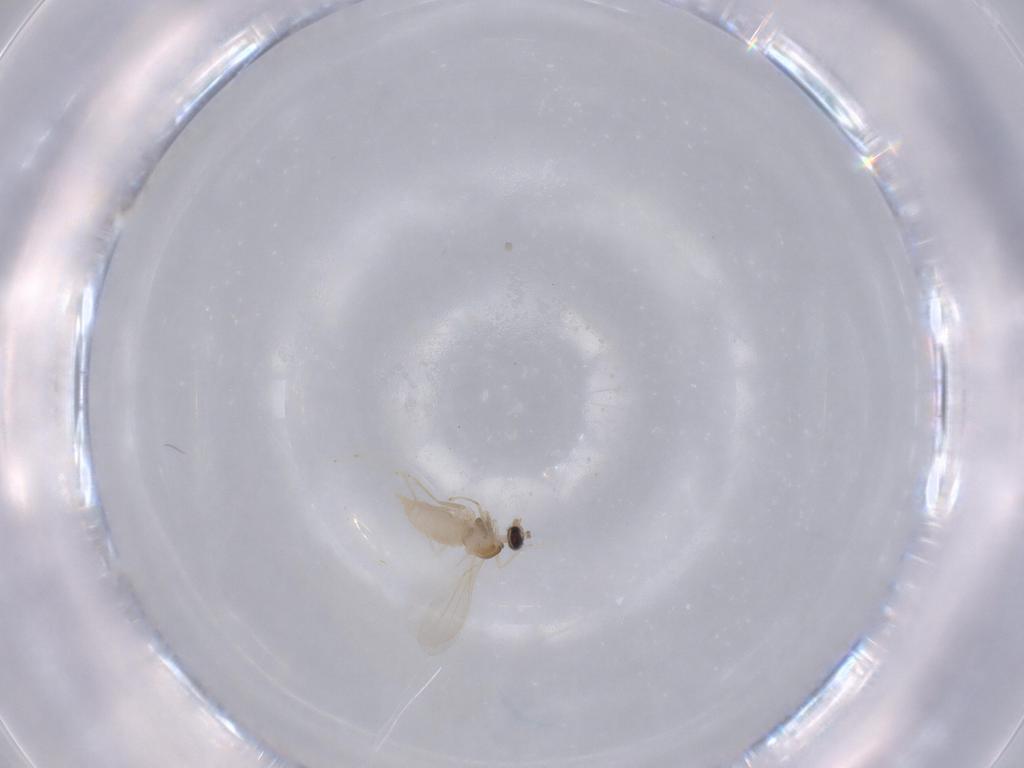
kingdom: Animalia
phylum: Arthropoda
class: Insecta
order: Diptera
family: Cecidomyiidae
